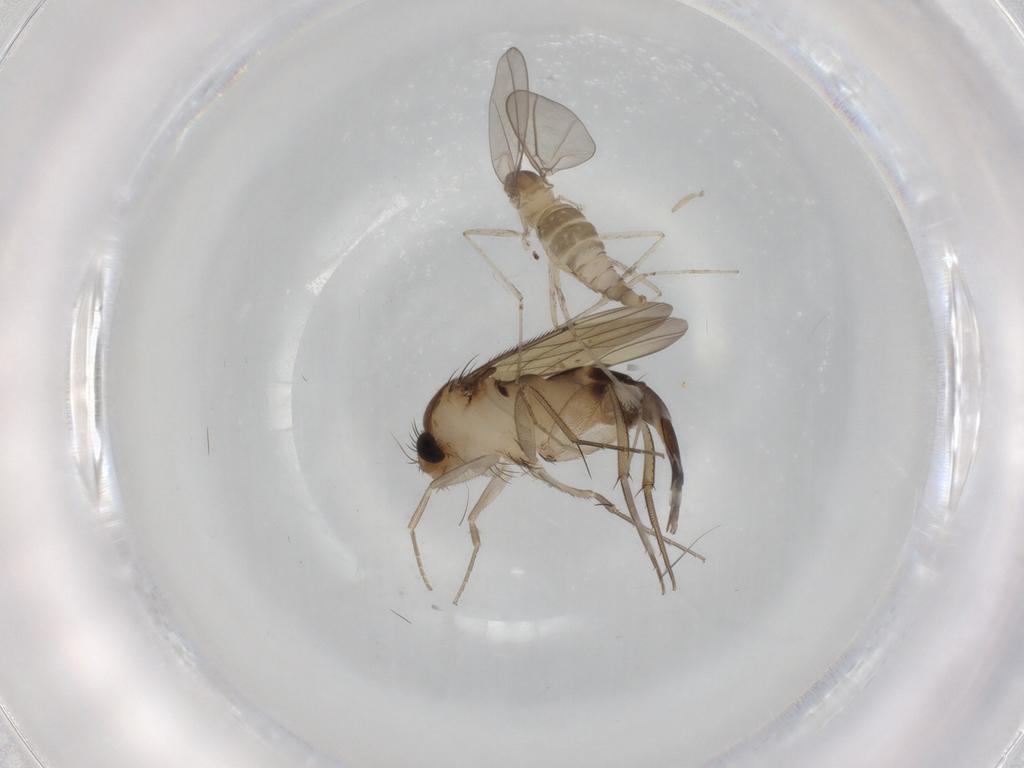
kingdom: Animalia
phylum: Arthropoda
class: Insecta
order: Diptera
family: Phoridae
